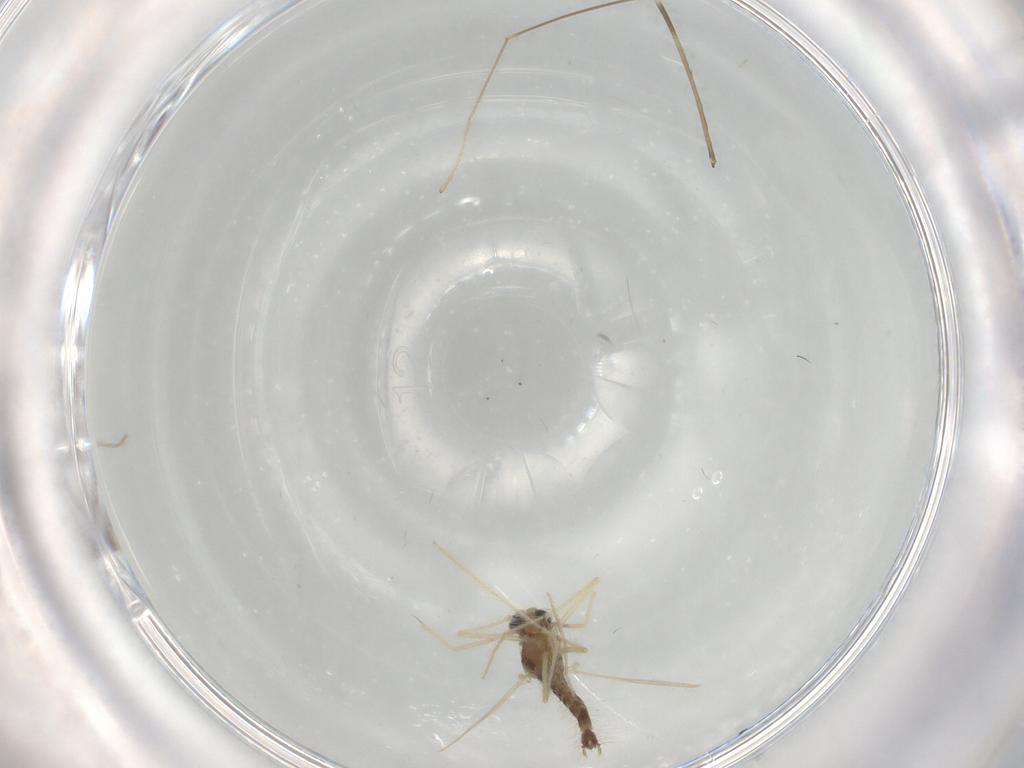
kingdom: Animalia
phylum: Arthropoda
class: Insecta
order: Diptera
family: Chironomidae
